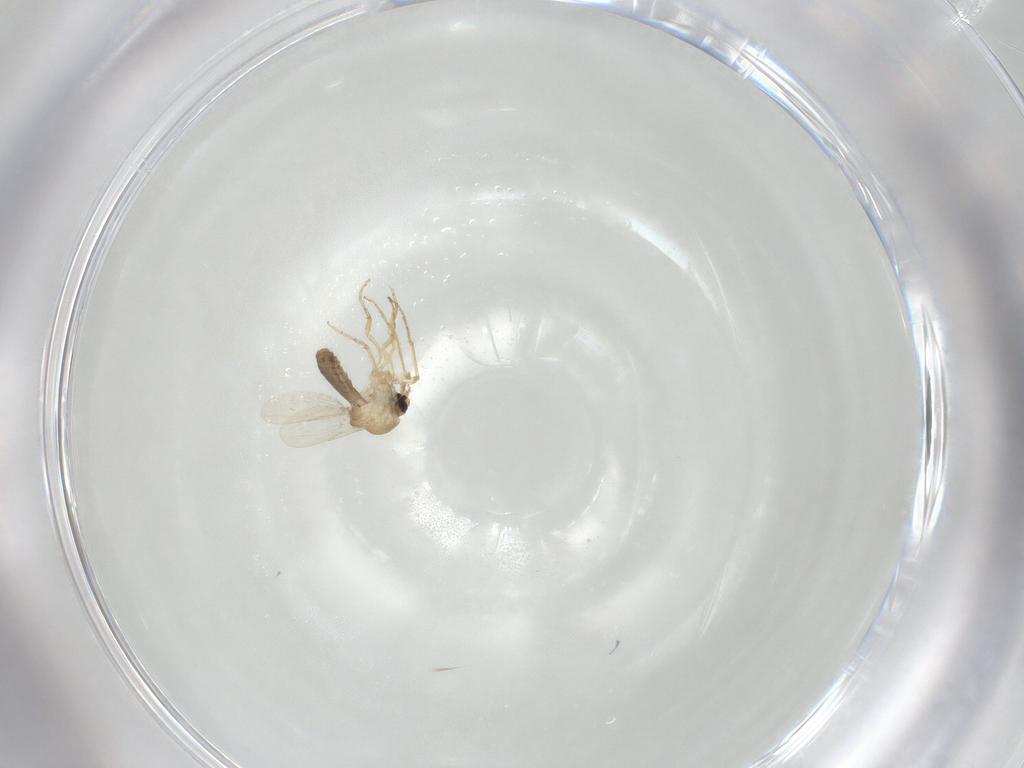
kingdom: Animalia
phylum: Arthropoda
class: Insecta
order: Diptera
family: Ceratopogonidae
